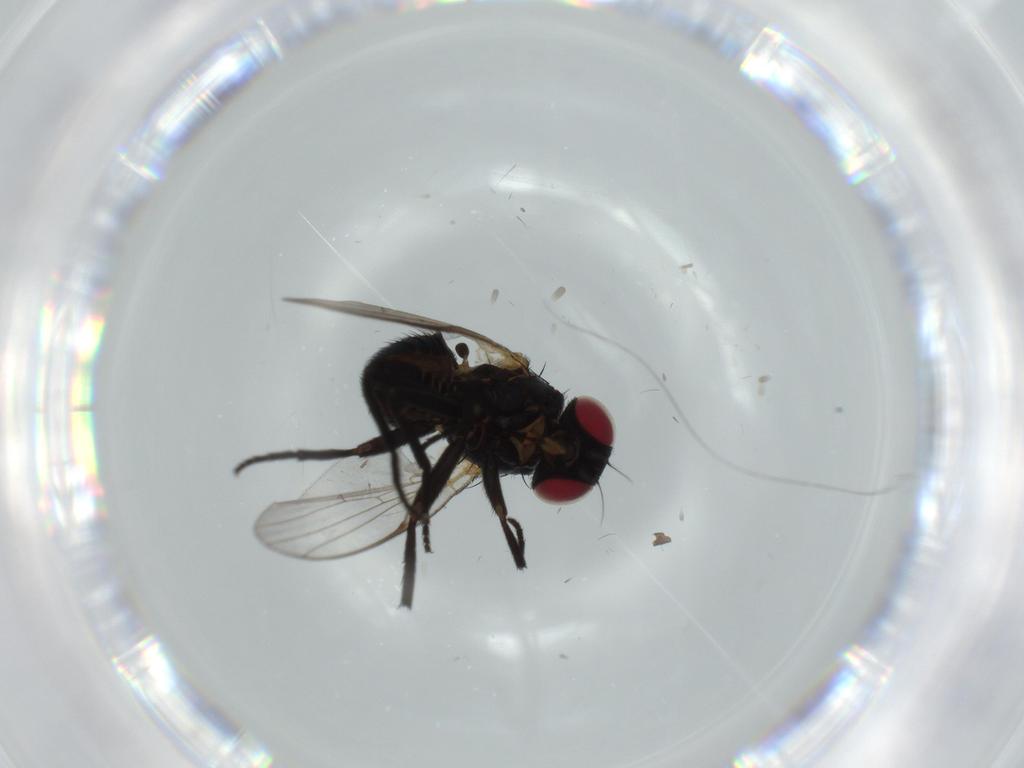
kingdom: Animalia
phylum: Arthropoda
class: Insecta
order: Diptera
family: Agromyzidae
